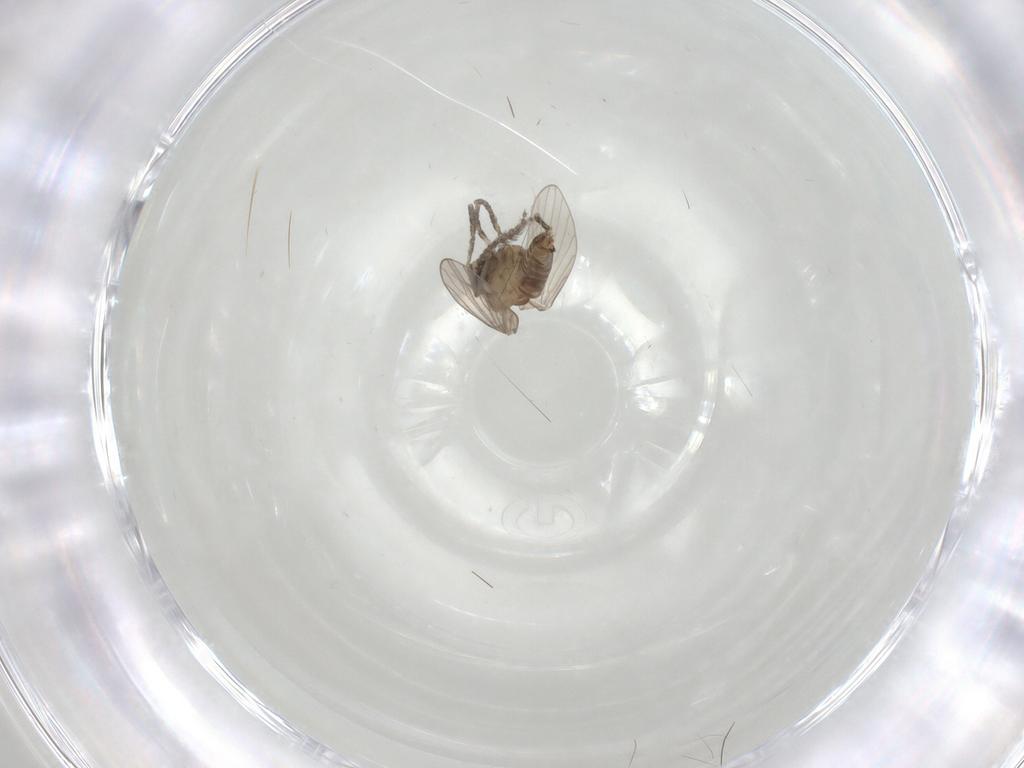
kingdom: Animalia
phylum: Arthropoda
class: Insecta
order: Diptera
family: Psychodidae
